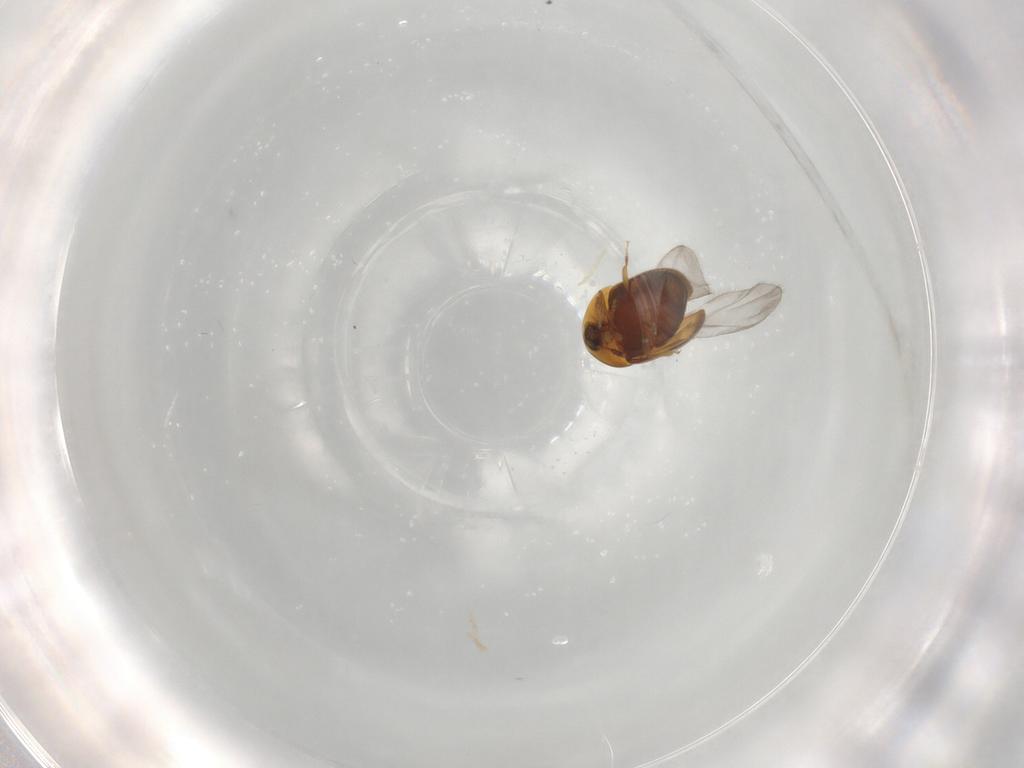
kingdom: Animalia
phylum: Arthropoda
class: Insecta
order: Coleoptera
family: Corylophidae
